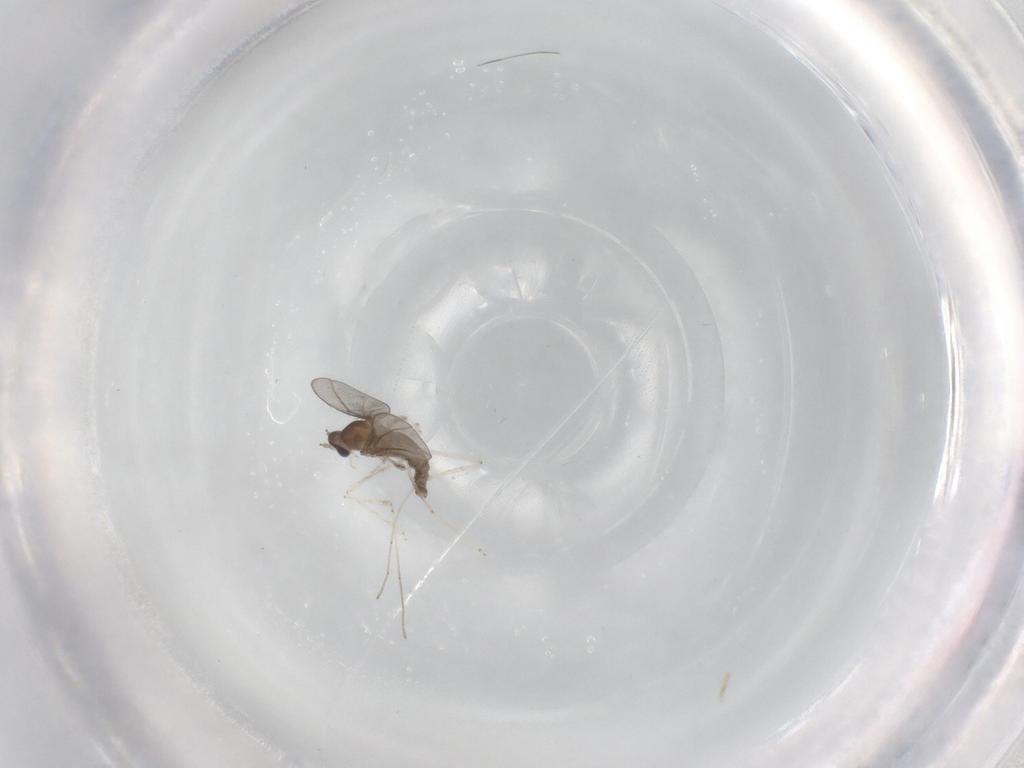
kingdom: Animalia
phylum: Arthropoda
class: Insecta
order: Diptera
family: Cecidomyiidae
